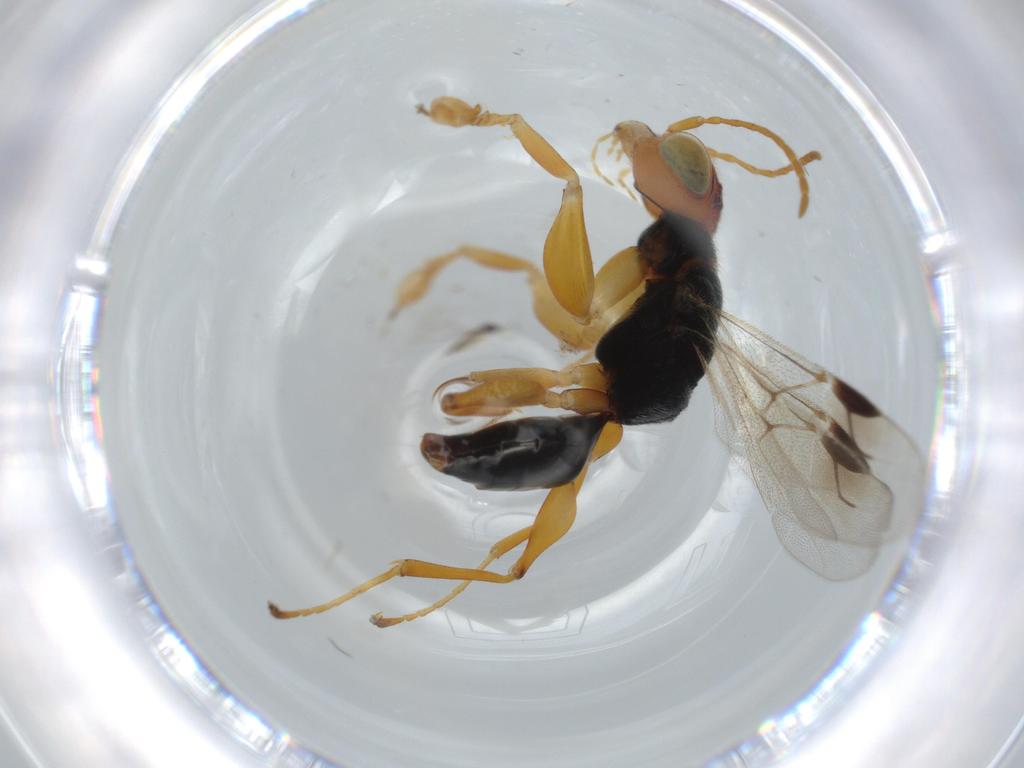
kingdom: Animalia
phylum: Arthropoda
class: Insecta
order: Hymenoptera
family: Dryinidae
